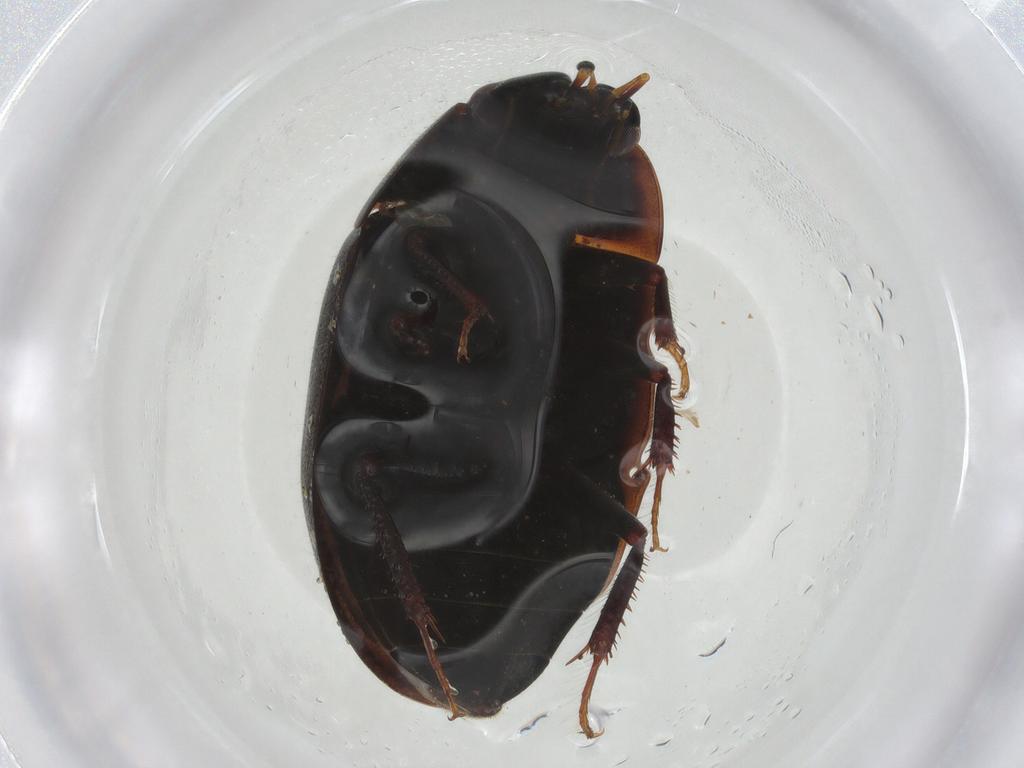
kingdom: Animalia
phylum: Arthropoda
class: Insecta
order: Coleoptera
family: Hydrophilidae
